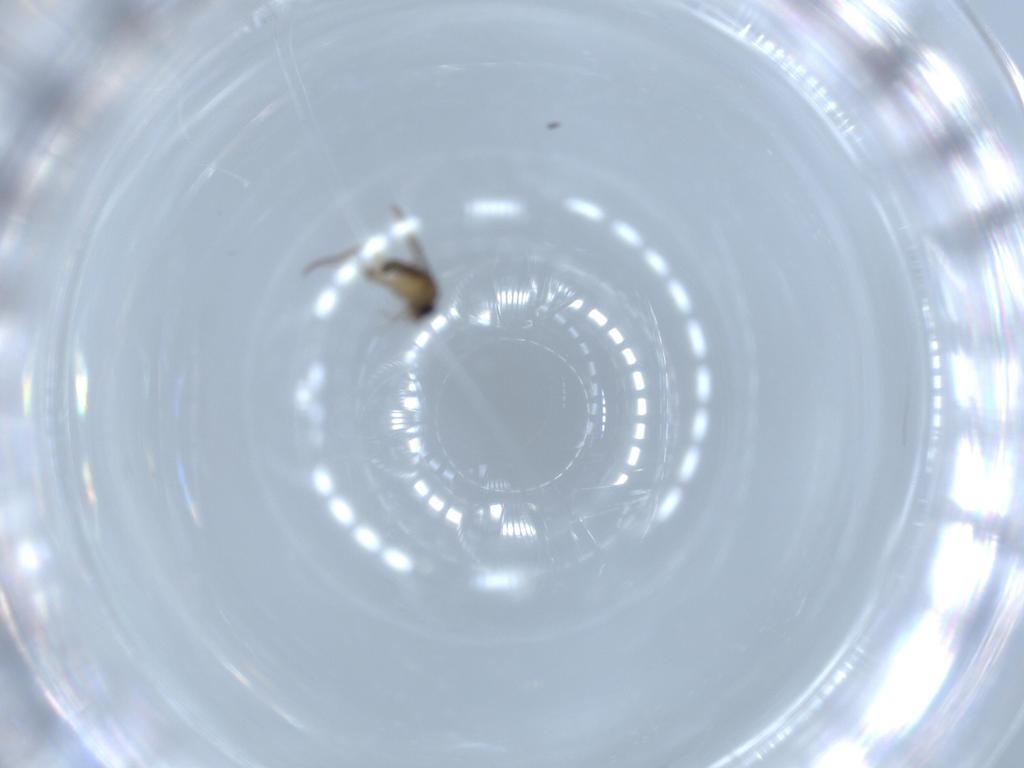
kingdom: Animalia
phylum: Arthropoda
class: Insecta
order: Diptera
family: Phoridae
